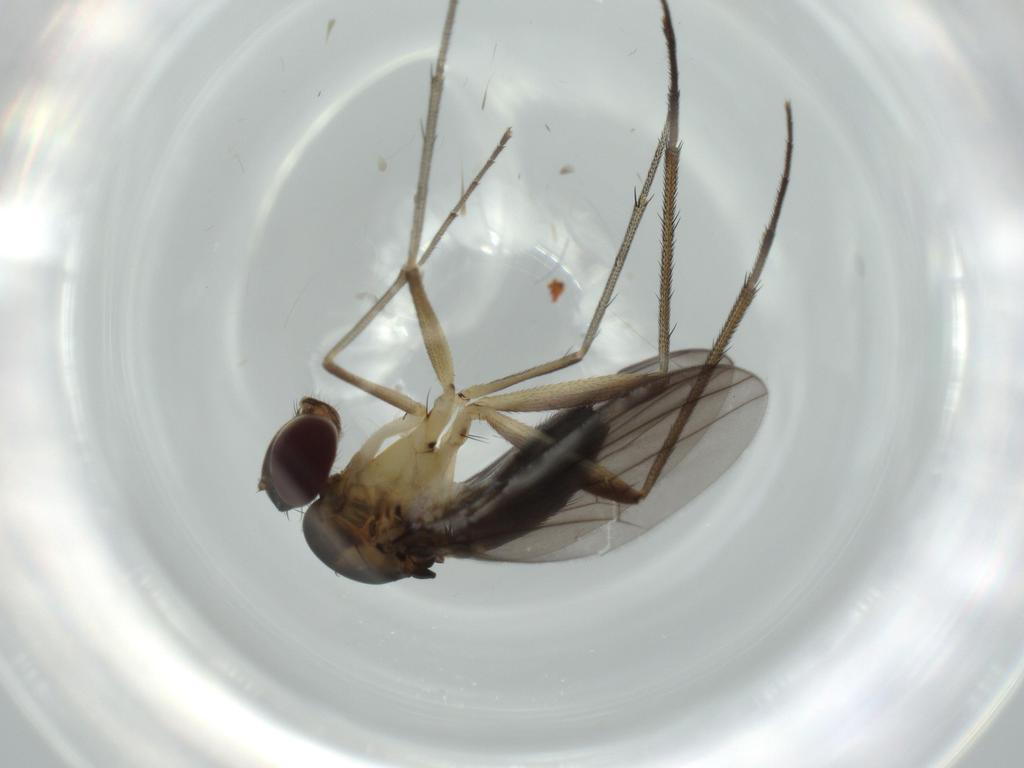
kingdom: Animalia
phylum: Arthropoda
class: Insecta
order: Diptera
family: Dolichopodidae
